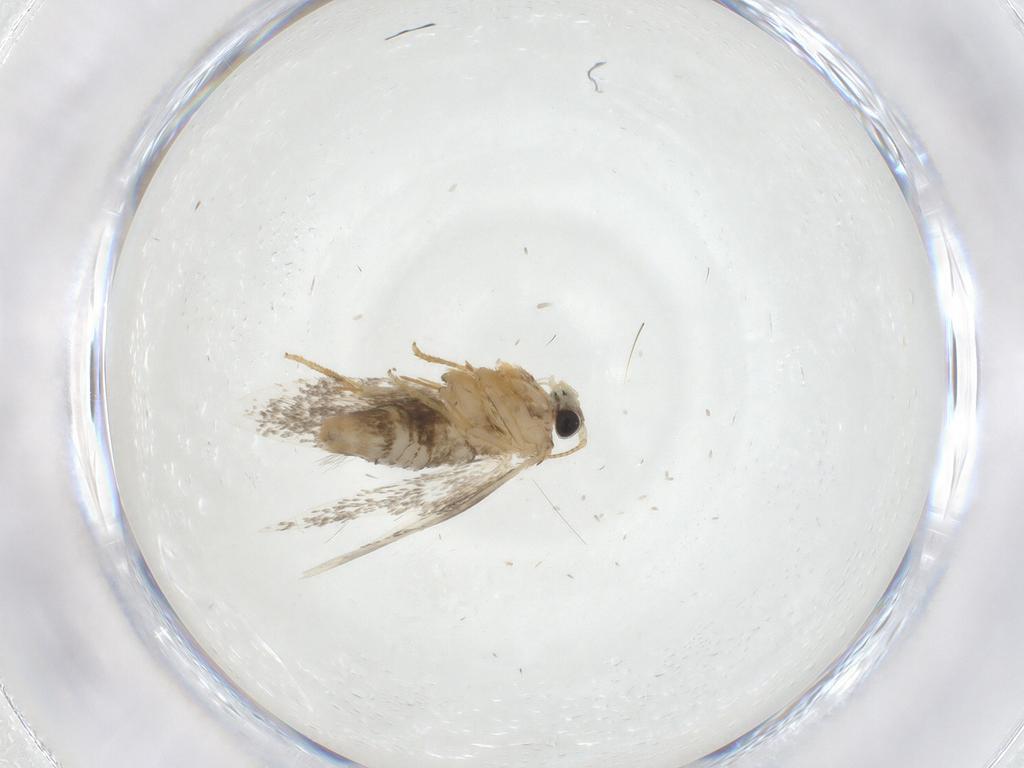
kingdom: Animalia
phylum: Arthropoda
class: Insecta
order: Lepidoptera
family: Tineidae
